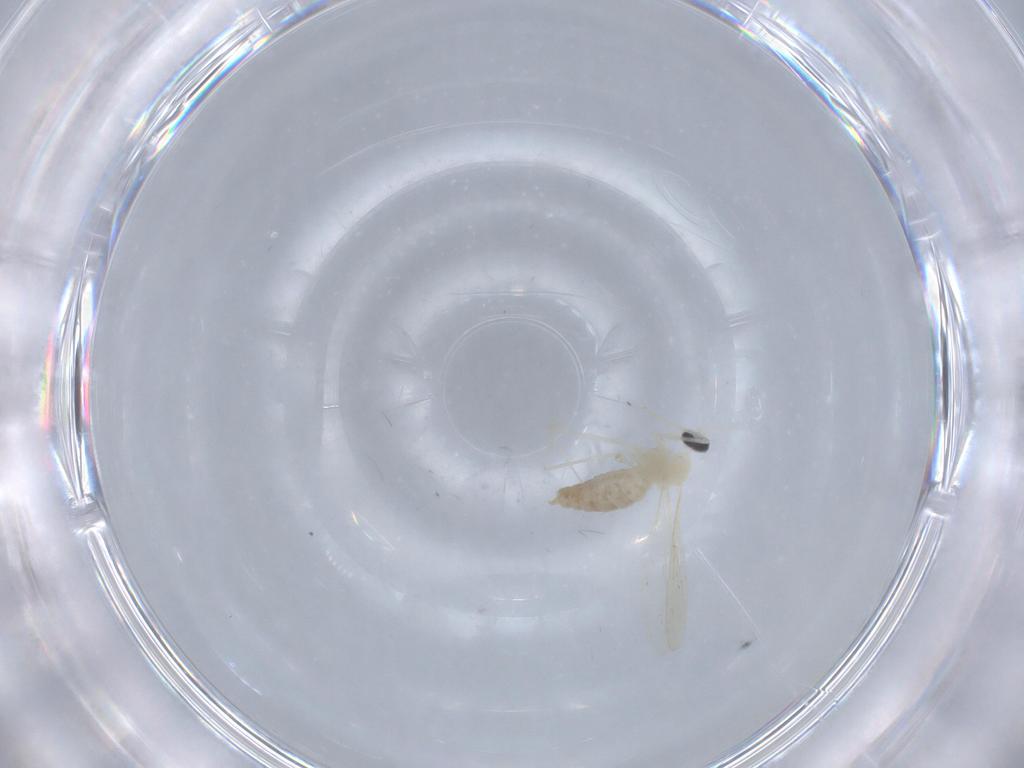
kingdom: Animalia
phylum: Arthropoda
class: Insecta
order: Diptera
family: Cecidomyiidae
